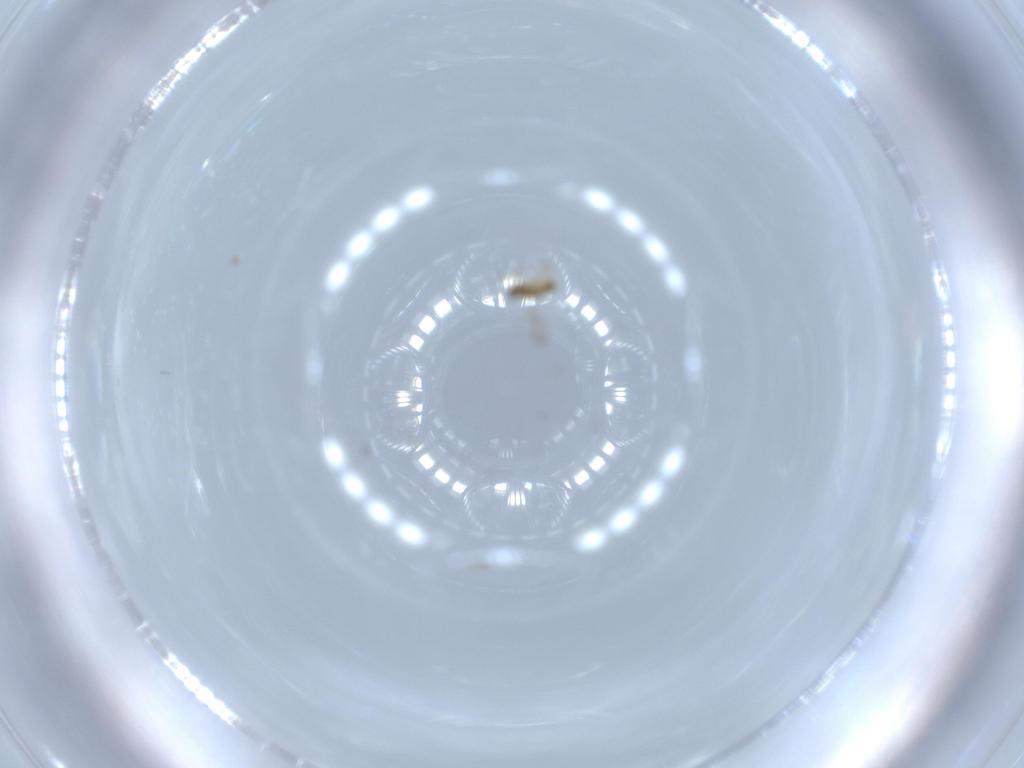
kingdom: Animalia
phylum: Arthropoda
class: Insecta
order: Hymenoptera
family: Aphelinidae
